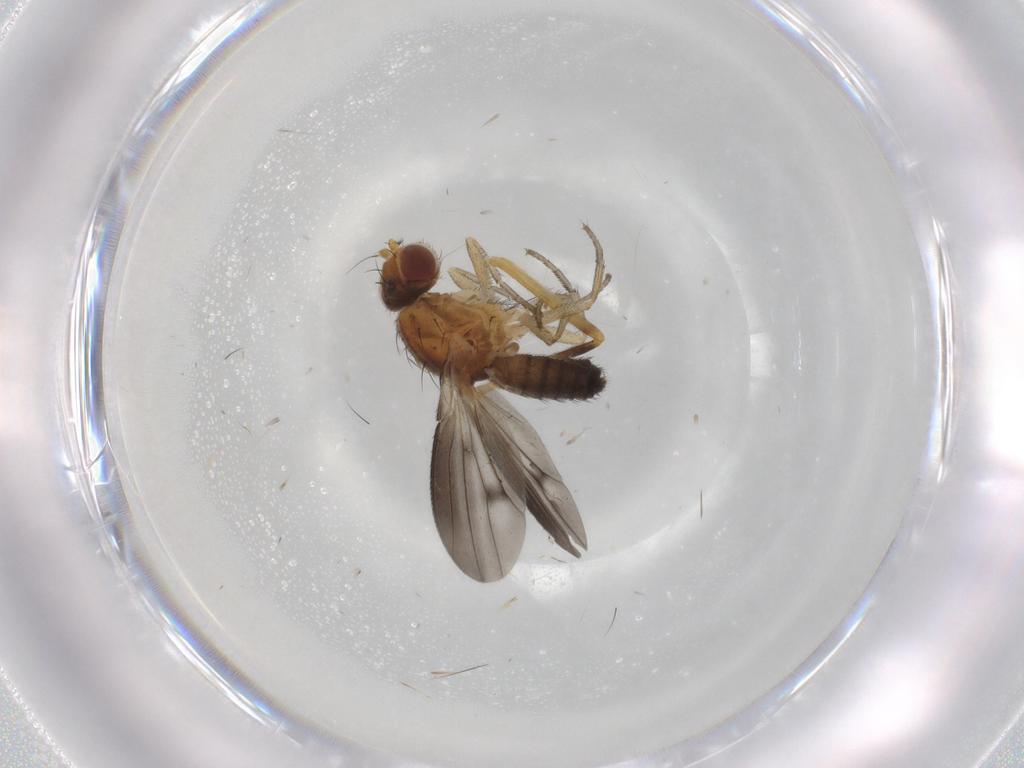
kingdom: Animalia
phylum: Arthropoda
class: Insecta
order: Diptera
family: Heleomyzidae
